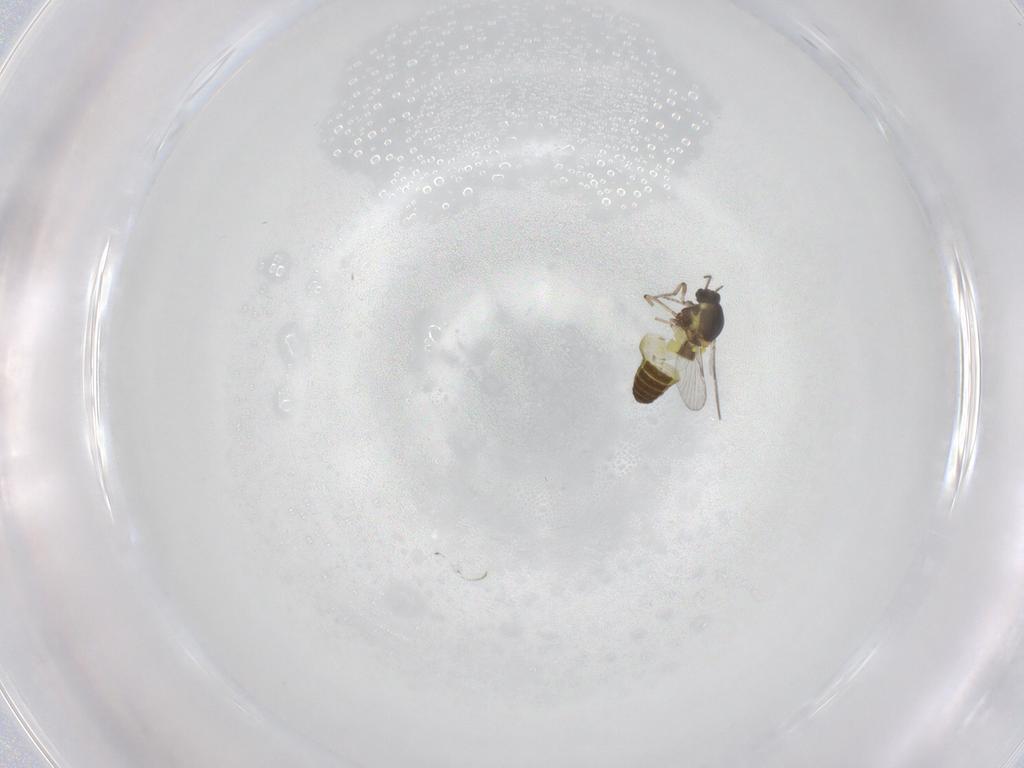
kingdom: Animalia
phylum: Arthropoda
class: Insecta
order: Diptera
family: Ceratopogonidae
